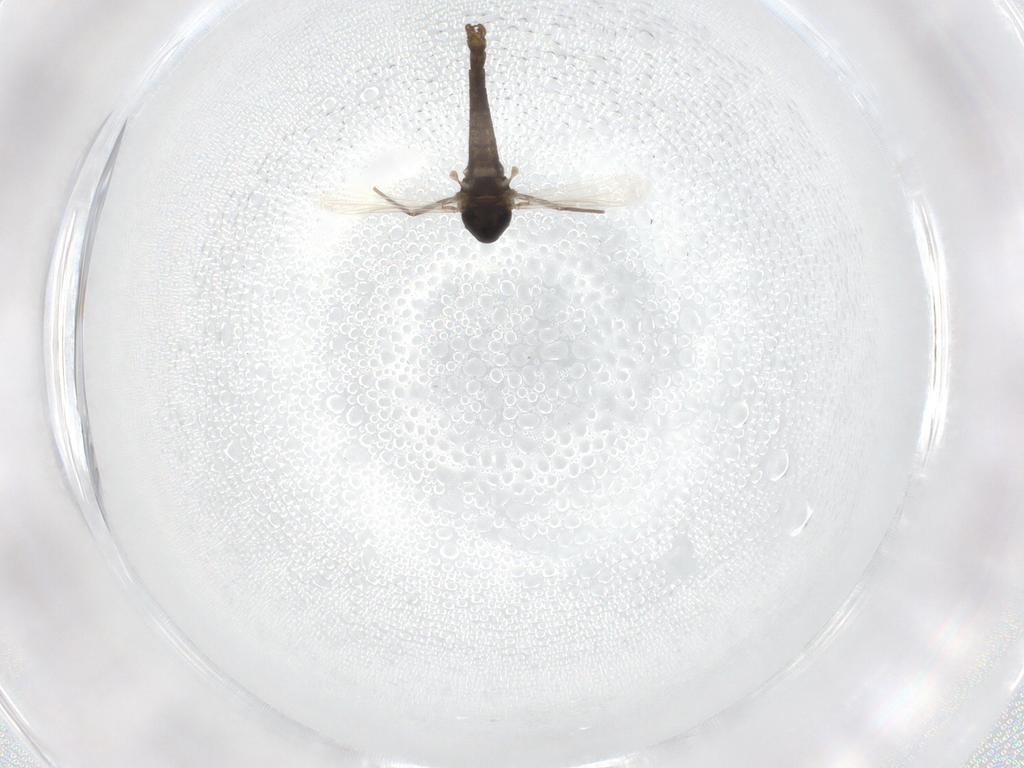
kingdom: Animalia
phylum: Arthropoda
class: Insecta
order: Diptera
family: Chironomidae
